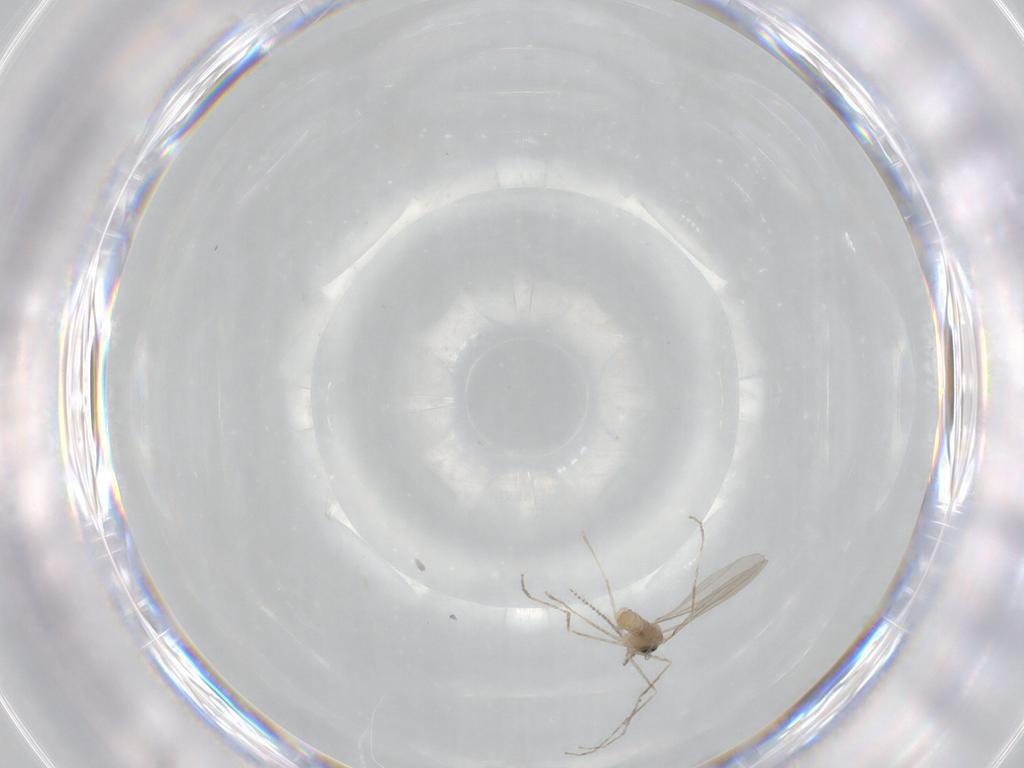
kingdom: Animalia
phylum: Arthropoda
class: Insecta
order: Diptera
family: Cecidomyiidae
